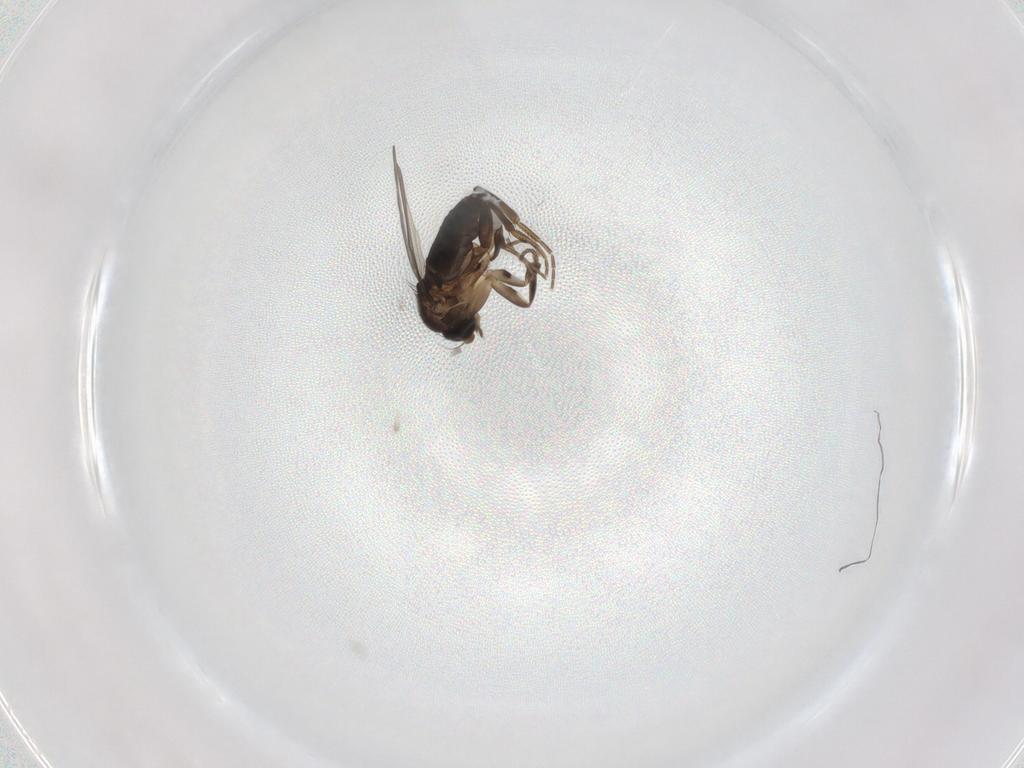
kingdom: Animalia
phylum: Arthropoda
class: Insecta
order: Diptera
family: Phoridae
